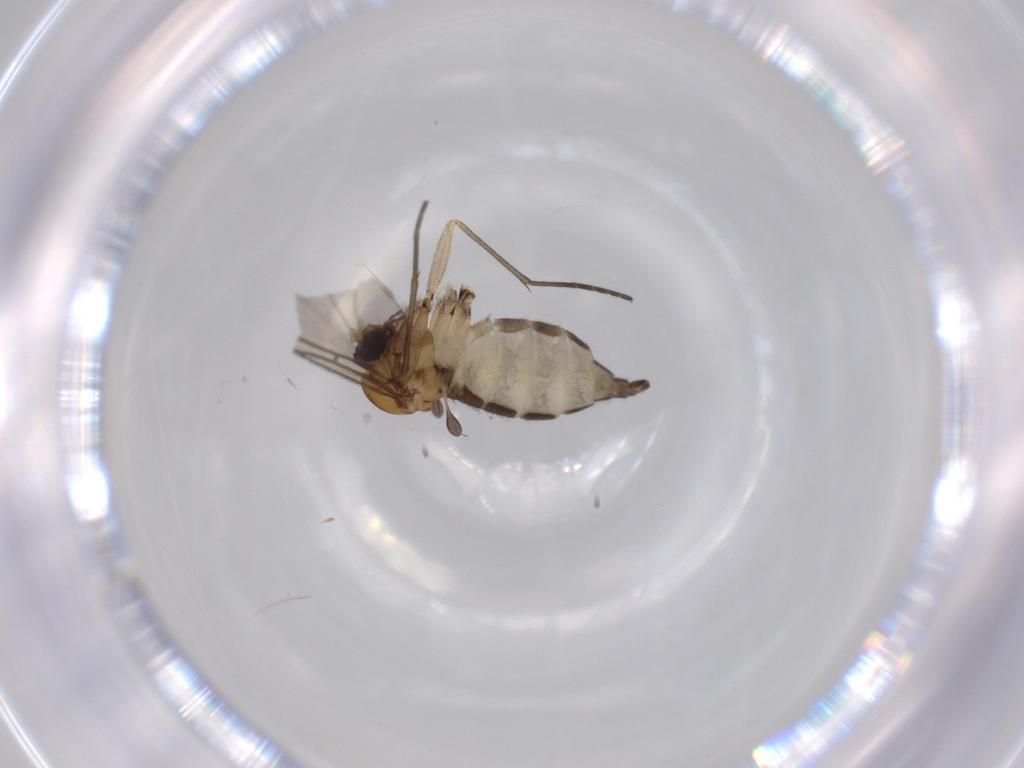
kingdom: Animalia
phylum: Arthropoda
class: Insecta
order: Diptera
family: Sciaridae
